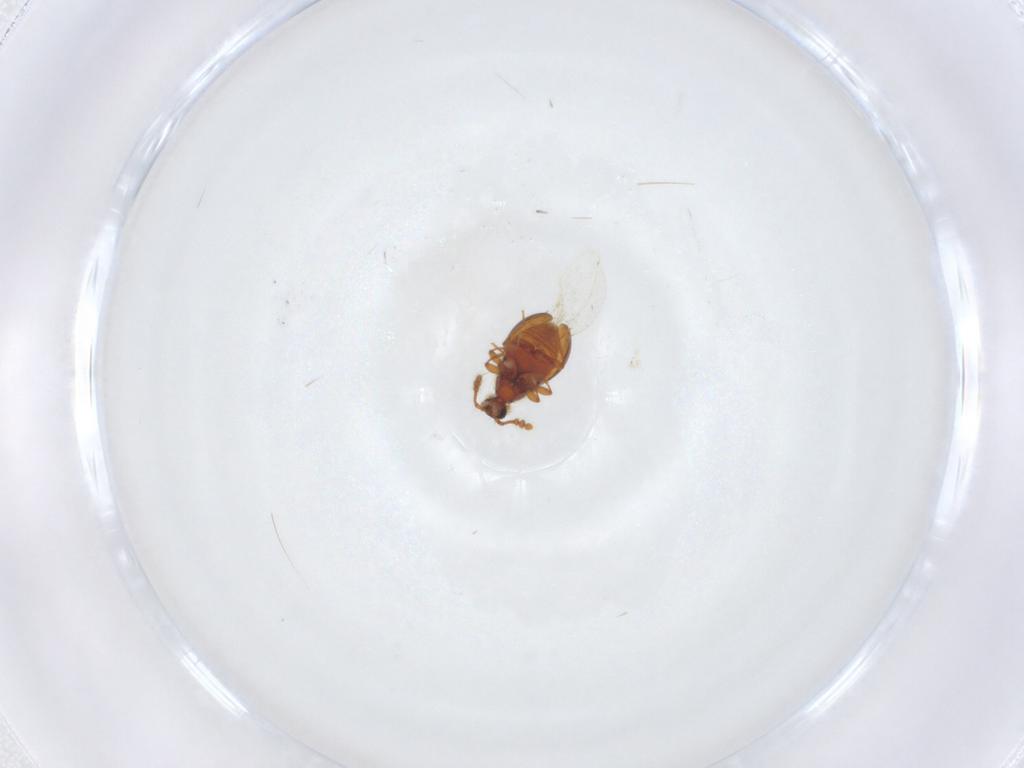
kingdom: Animalia
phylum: Arthropoda
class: Insecta
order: Coleoptera
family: Staphylinidae
